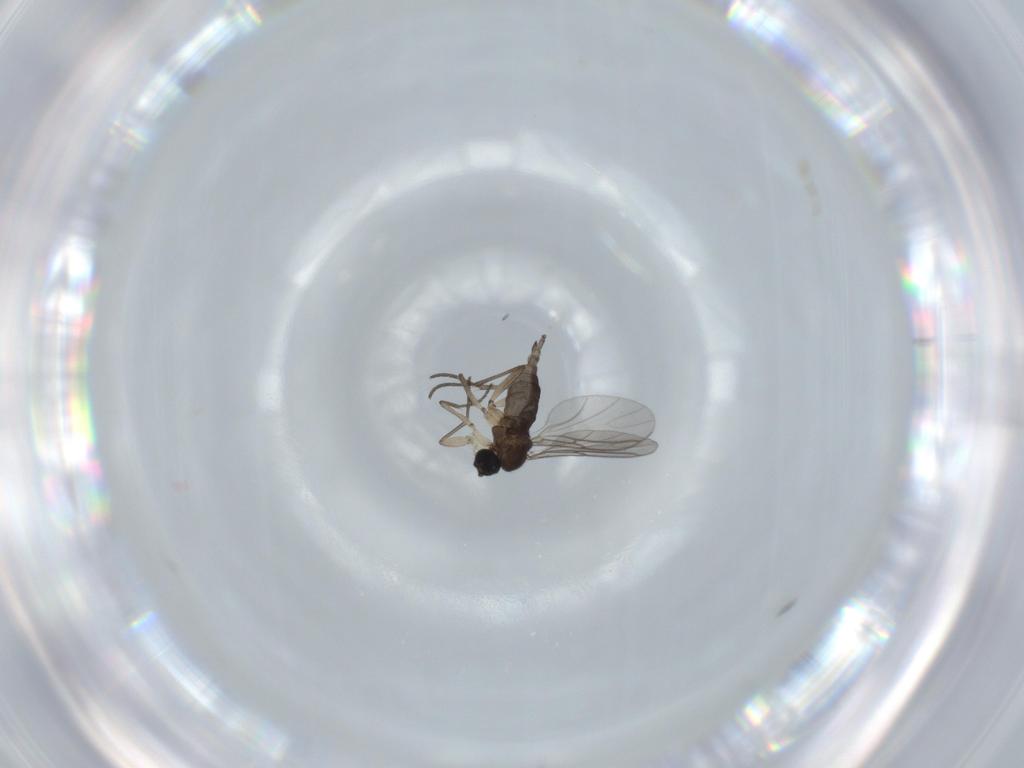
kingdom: Animalia
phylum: Arthropoda
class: Insecta
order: Diptera
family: Sciaridae
